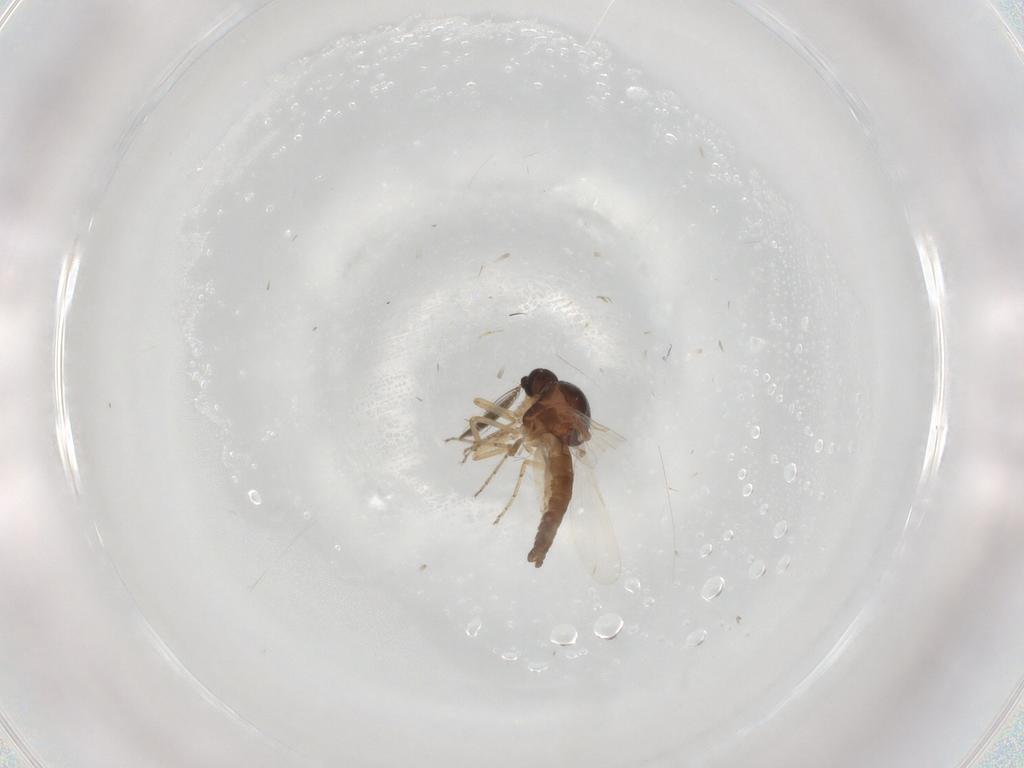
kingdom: Animalia
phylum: Arthropoda
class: Insecta
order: Diptera
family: Ceratopogonidae
